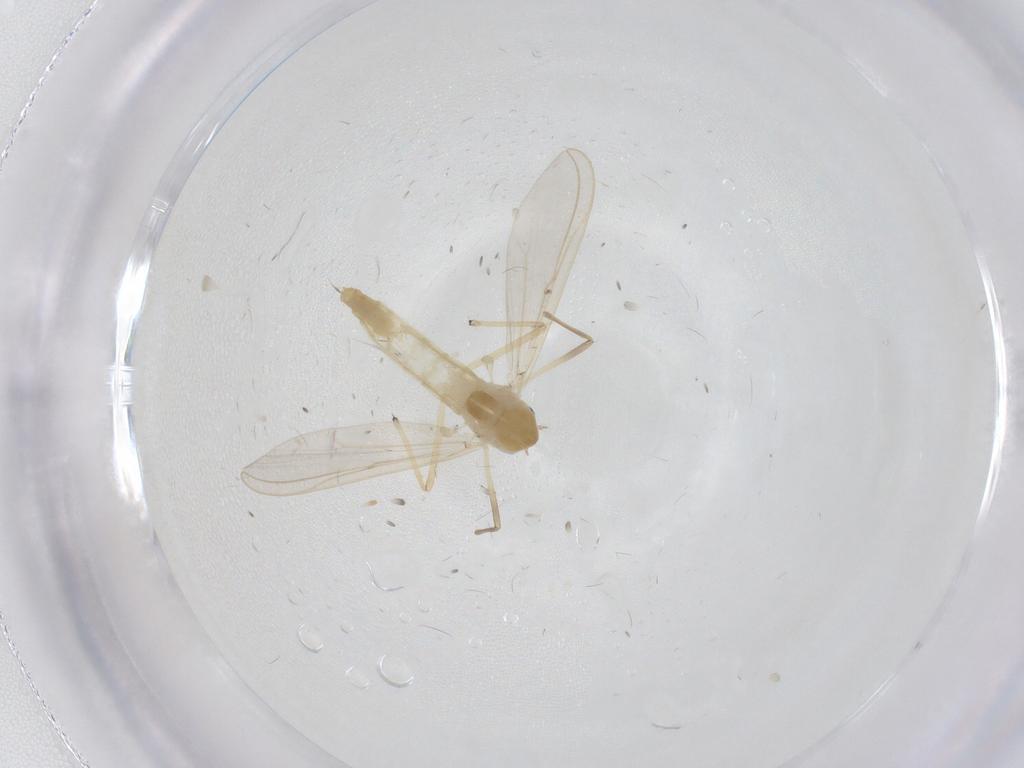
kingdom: Animalia
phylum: Arthropoda
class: Insecta
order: Diptera
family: Chironomidae
